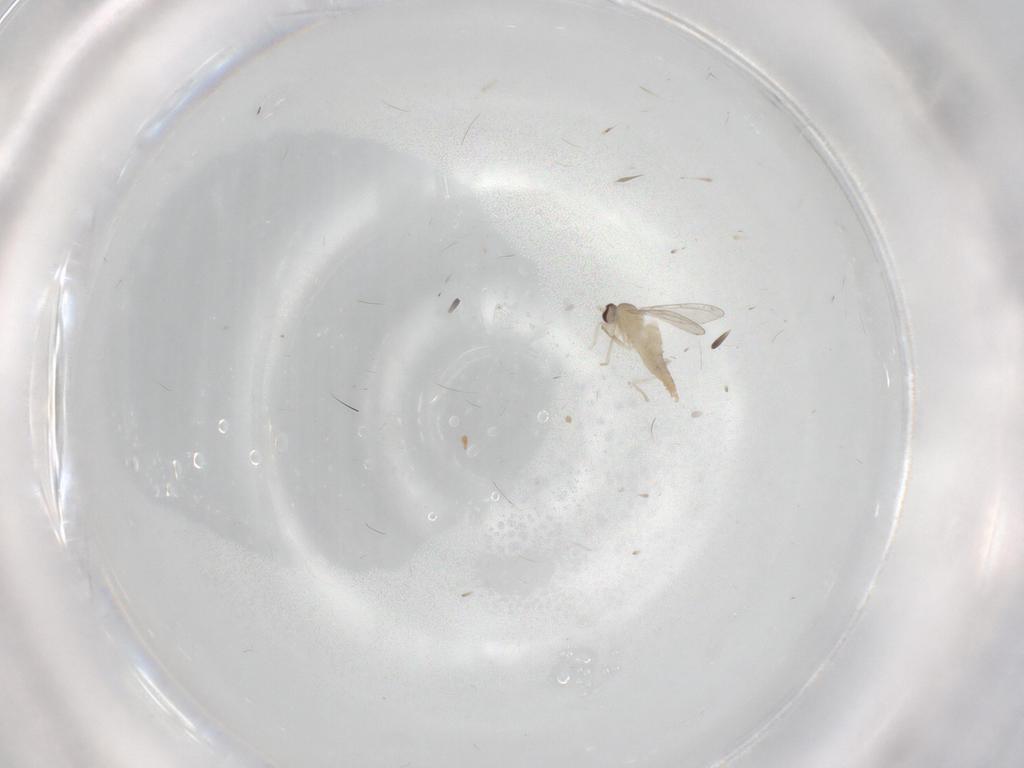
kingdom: Animalia
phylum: Arthropoda
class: Insecta
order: Diptera
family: Cecidomyiidae
